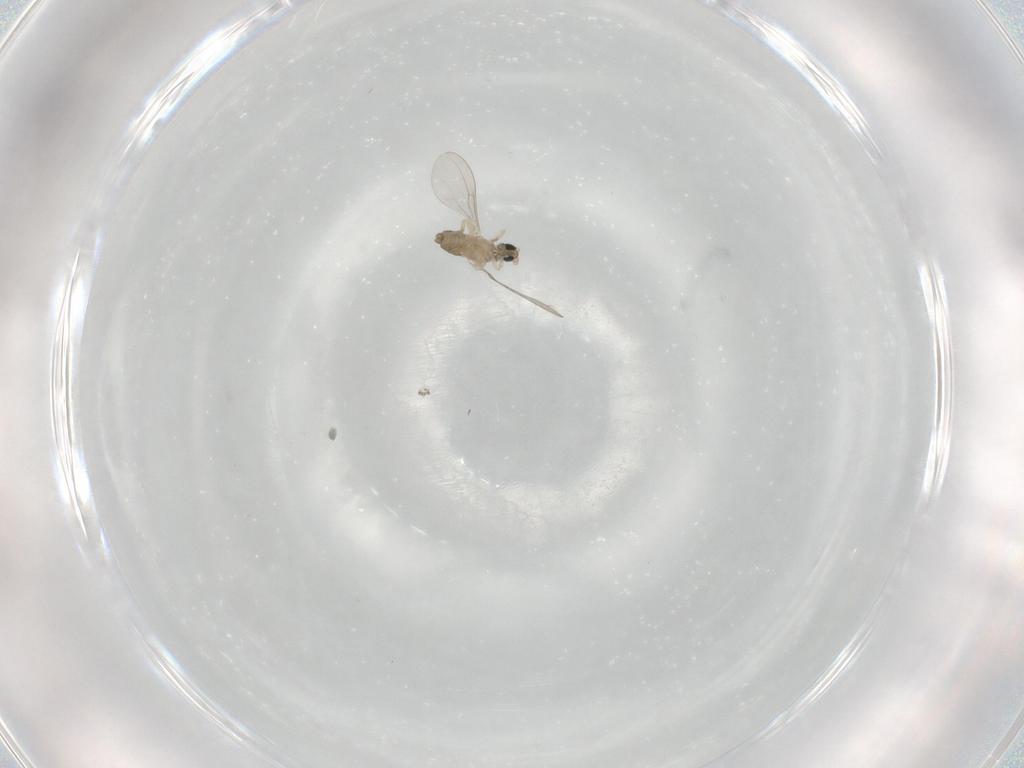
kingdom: Animalia
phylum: Arthropoda
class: Insecta
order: Diptera
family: Cecidomyiidae
